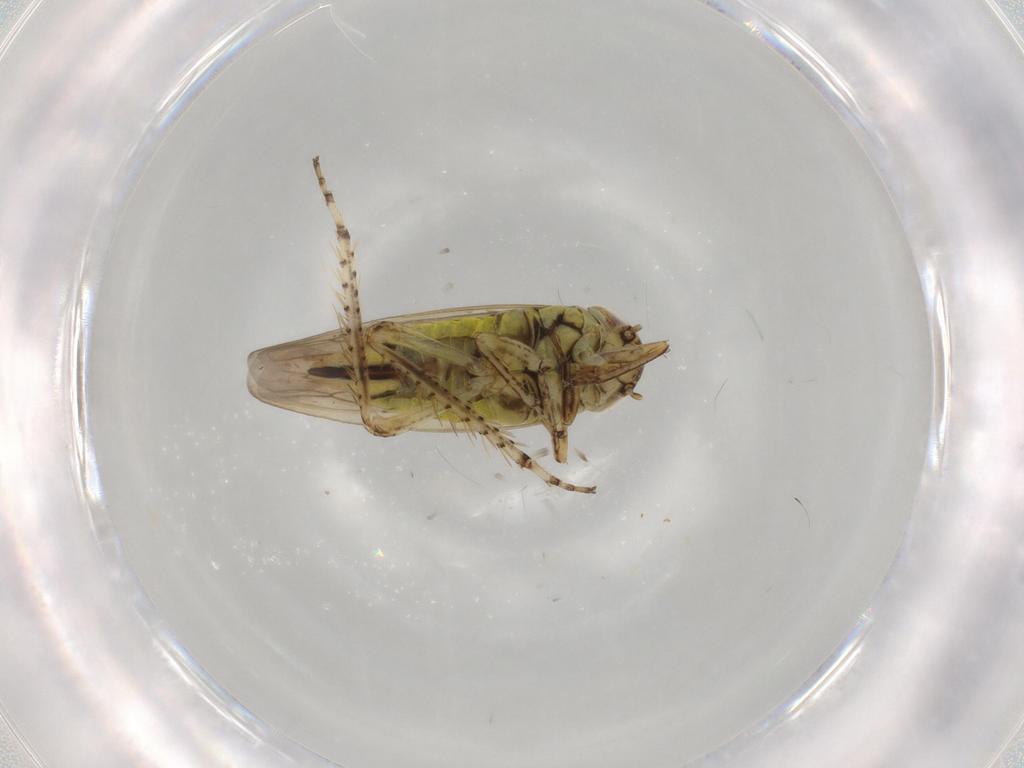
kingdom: Animalia
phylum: Arthropoda
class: Insecta
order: Hemiptera
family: Cicadellidae
